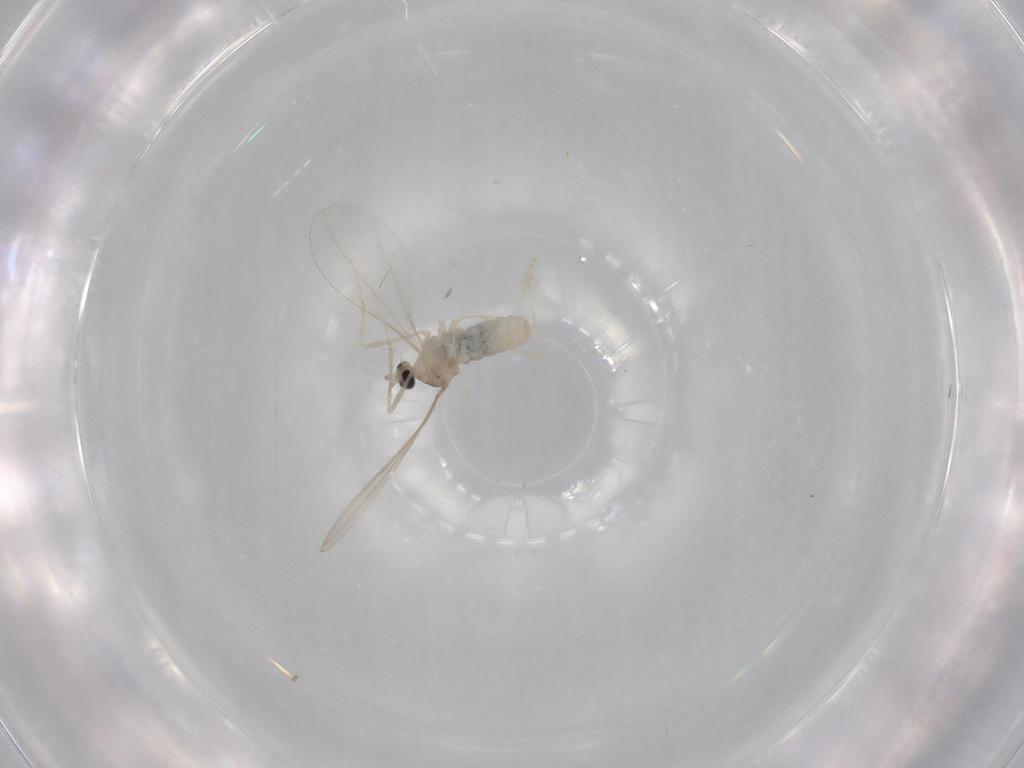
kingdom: Animalia
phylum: Arthropoda
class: Insecta
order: Diptera
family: Cecidomyiidae
